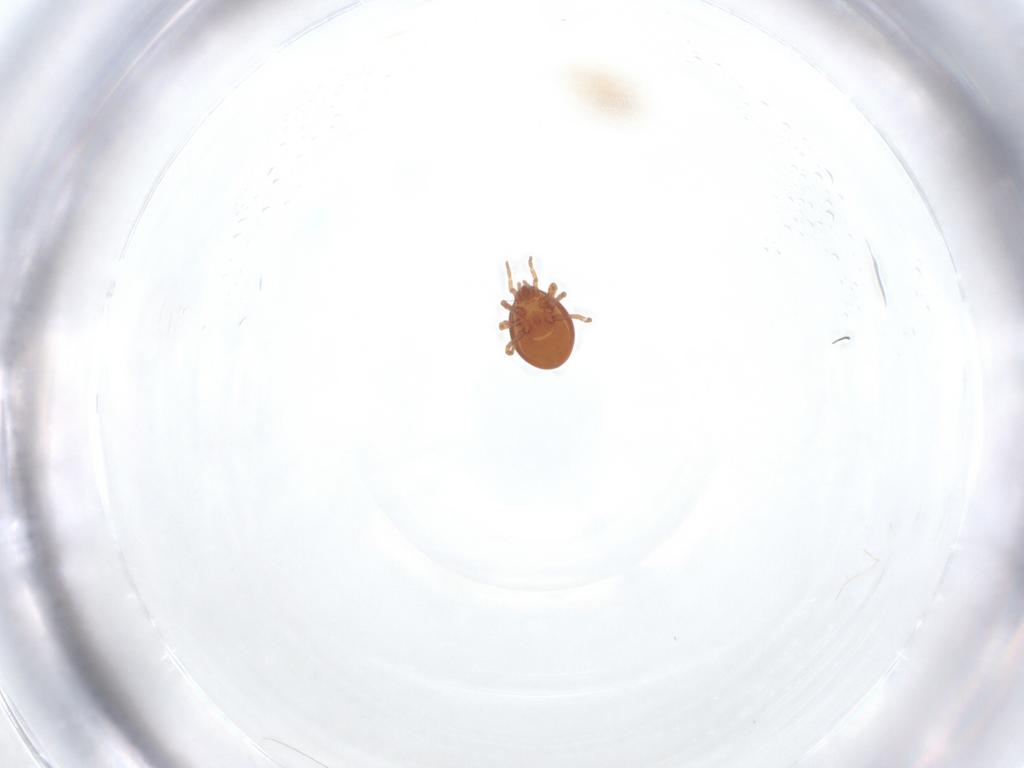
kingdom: Animalia
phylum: Arthropoda
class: Arachnida
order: Mesostigmata
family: Parasitidae
